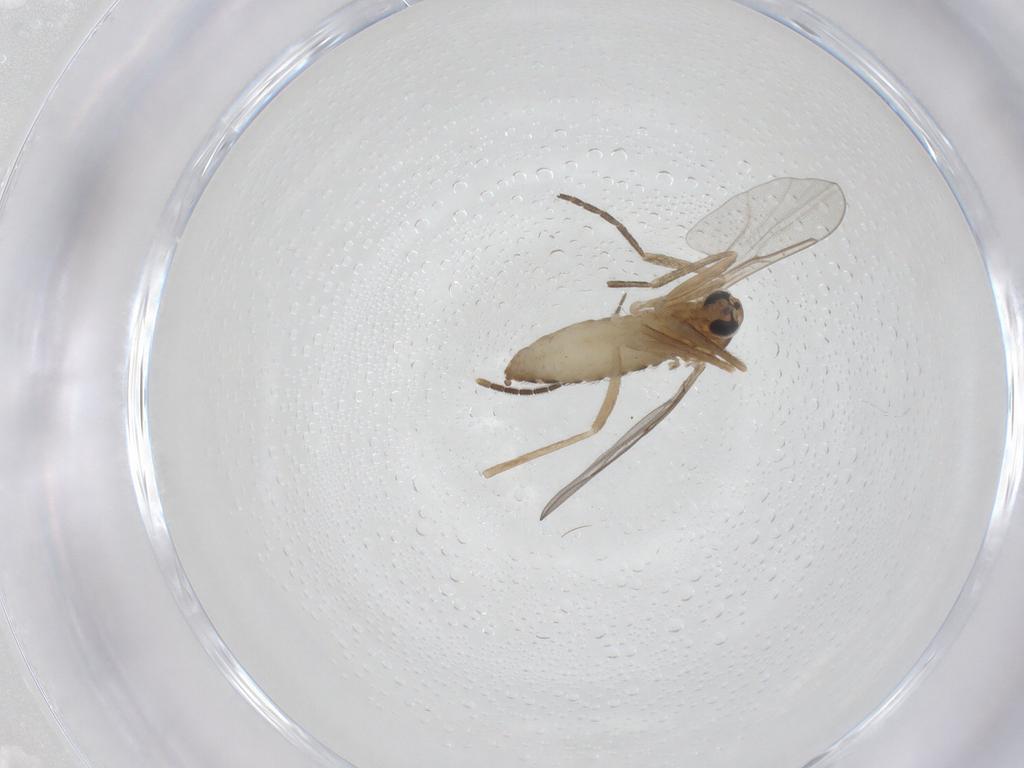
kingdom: Animalia
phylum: Arthropoda
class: Insecta
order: Diptera
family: Cecidomyiidae
